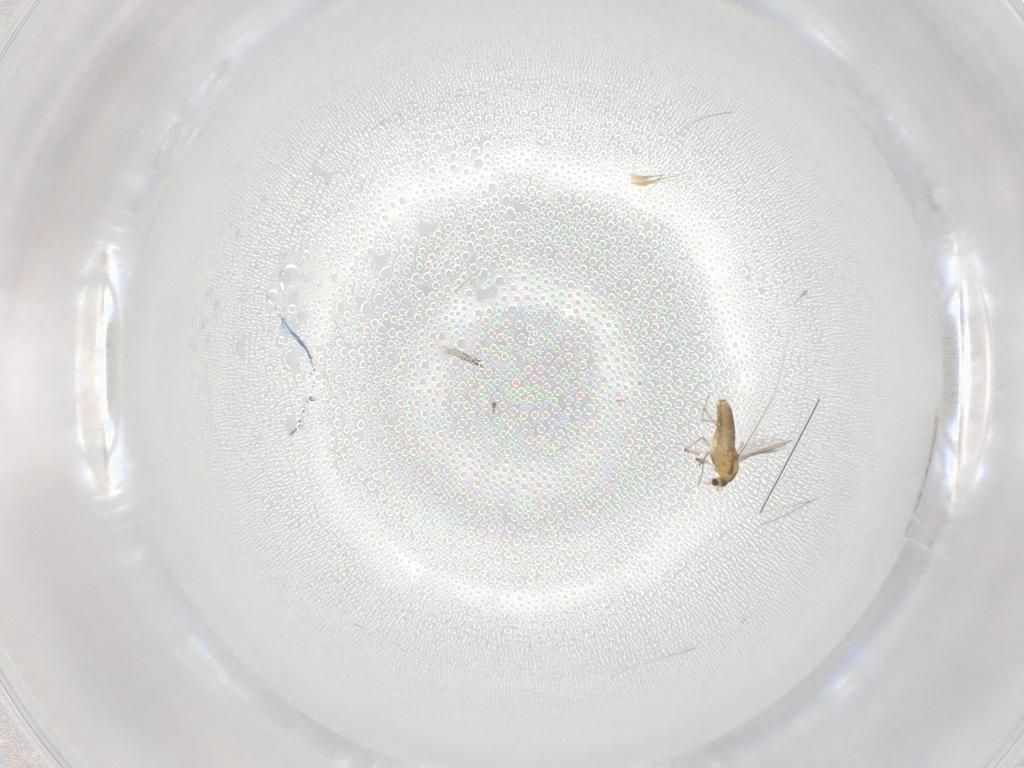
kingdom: Animalia
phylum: Arthropoda
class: Insecta
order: Diptera
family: Chironomidae
